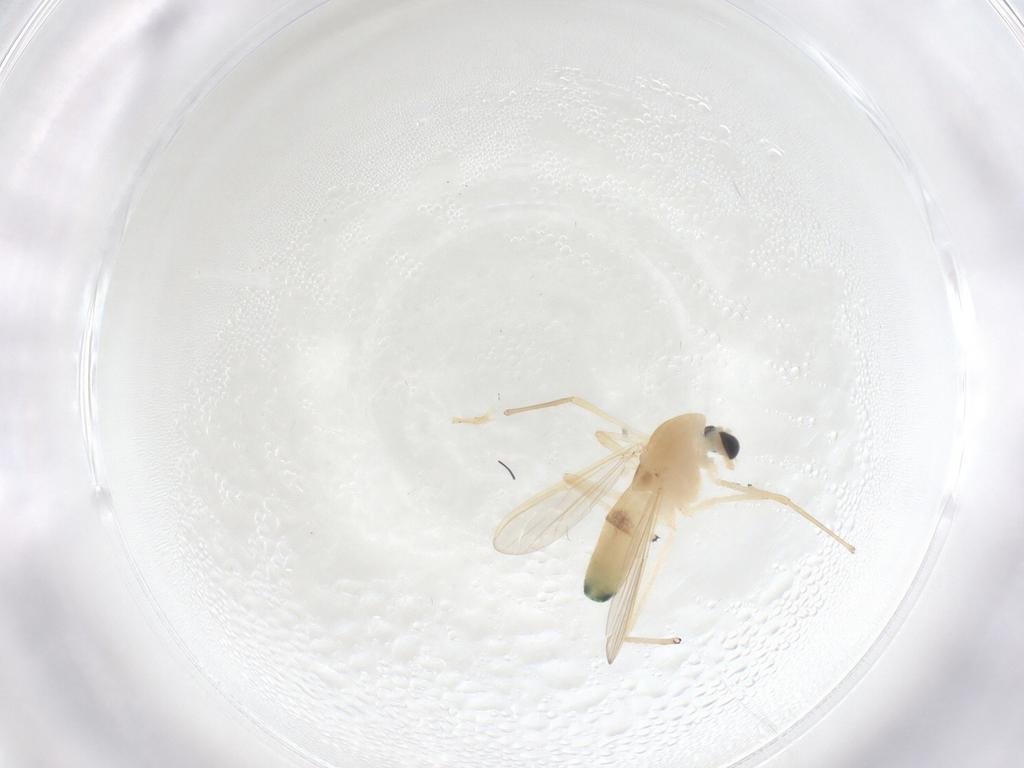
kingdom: Animalia
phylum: Arthropoda
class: Insecta
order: Diptera
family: Chironomidae
